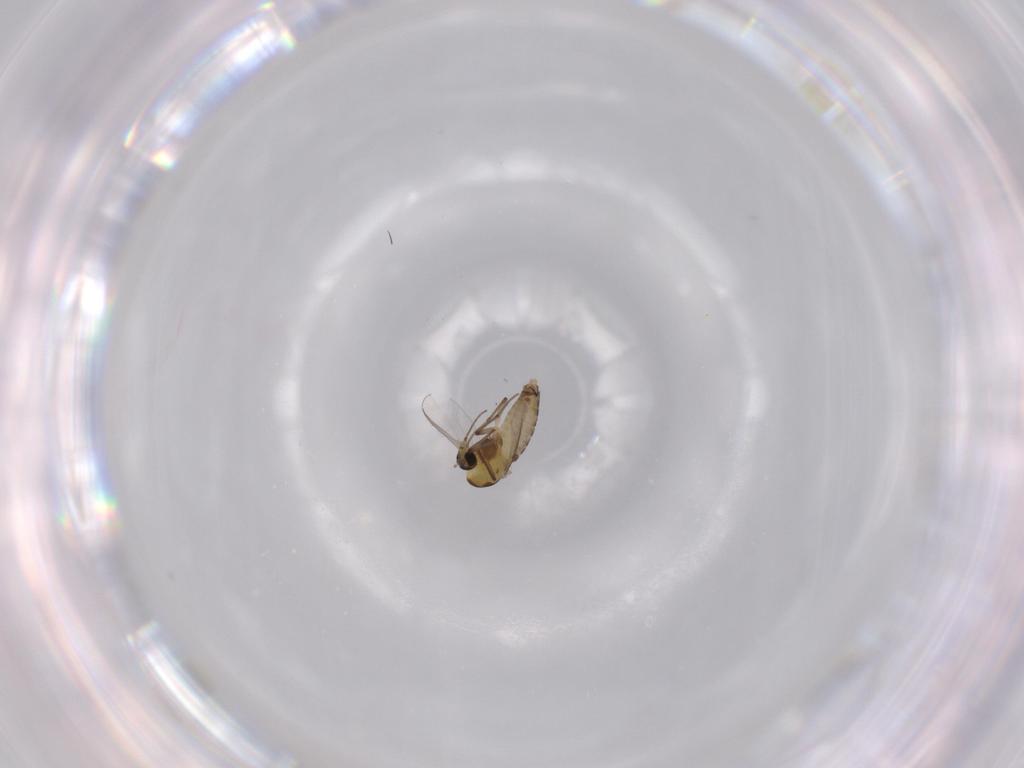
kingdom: Animalia
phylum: Arthropoda
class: Insecta
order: Diptera
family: Chironomidae
